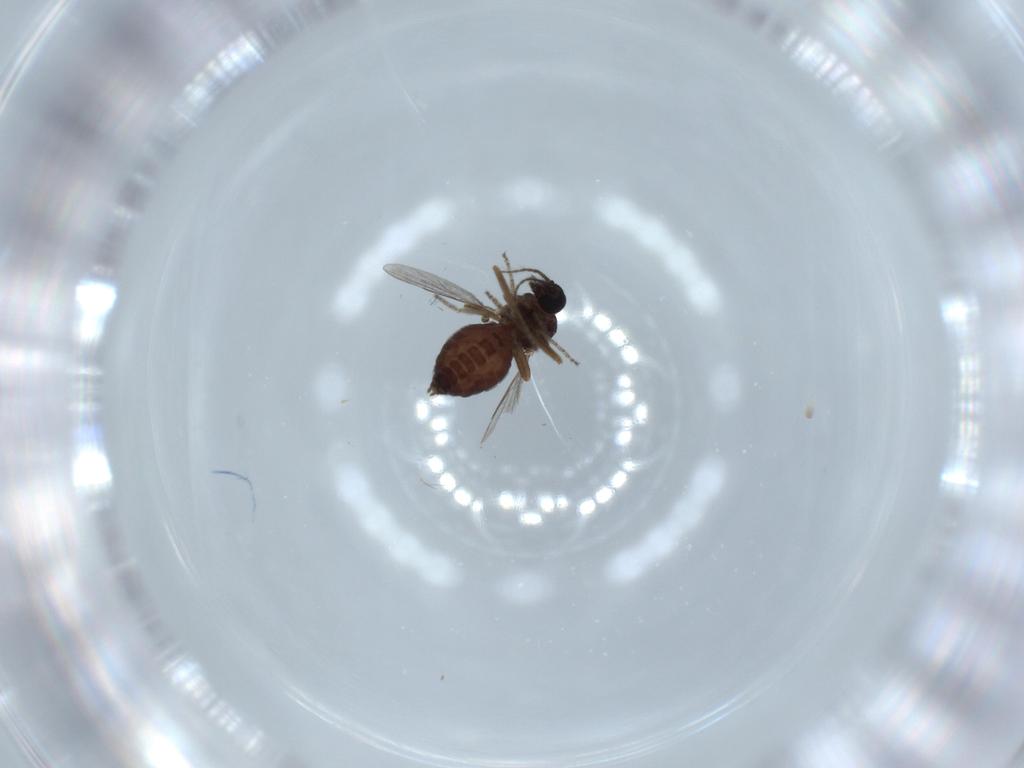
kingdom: Animalia
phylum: Arthropoda
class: Insecta
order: Diptera
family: Ceratopogonidae
